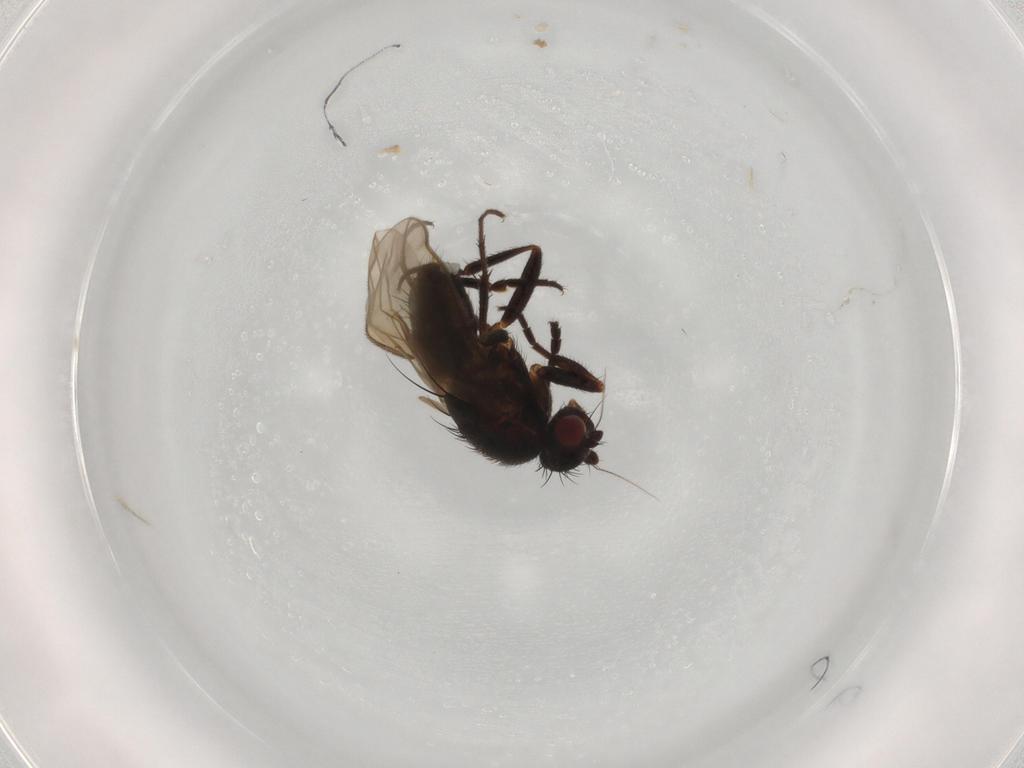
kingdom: Animalia
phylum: Arthropoda
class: Insecta
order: Diptera
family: Sphaeroceridae
